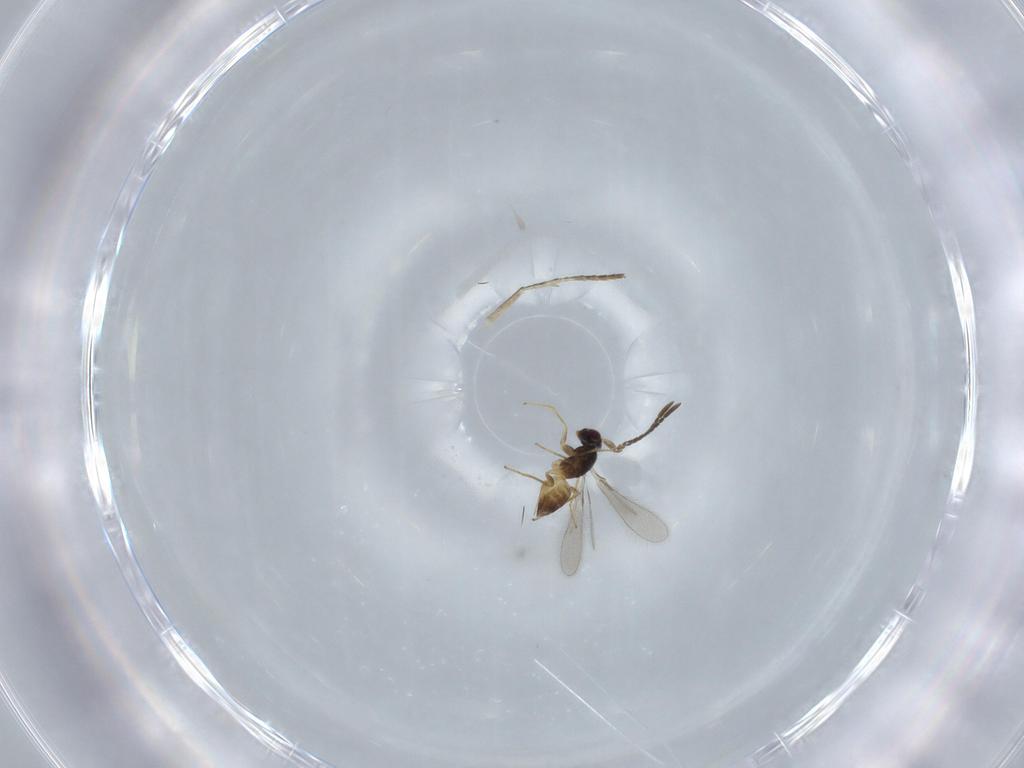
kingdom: Animalia
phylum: Arthropoda
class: Insecta
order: Hymenoptera
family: Mymaridae
